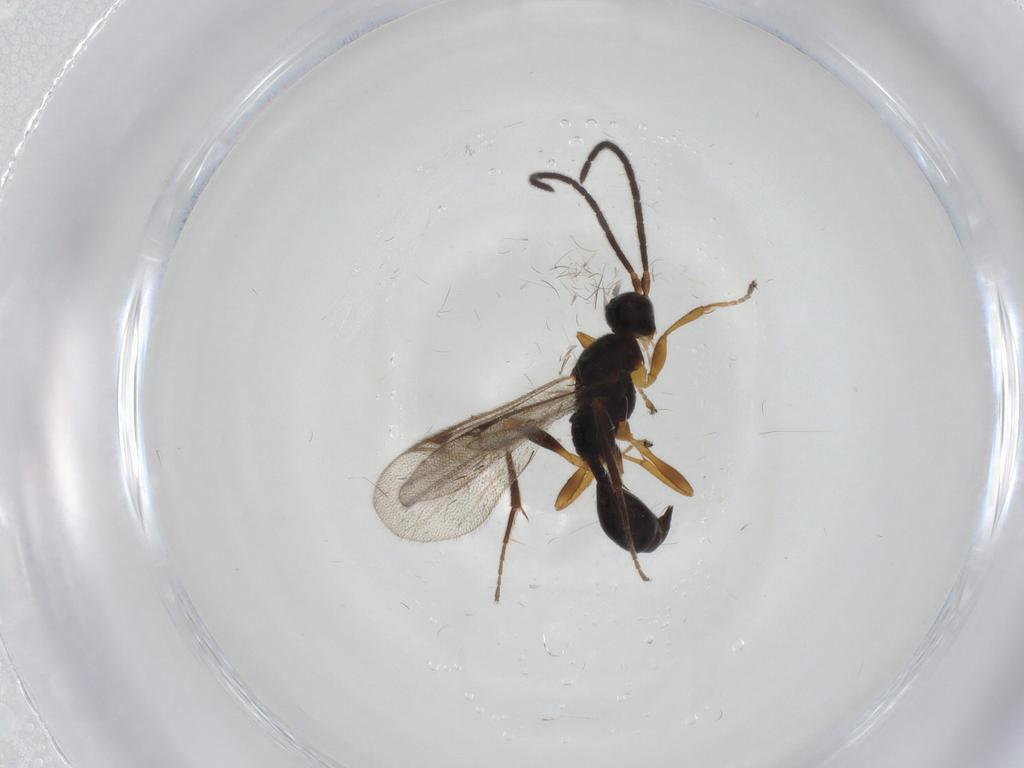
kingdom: Animalia
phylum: Arthropoda
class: Insecta
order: Hymenoptera
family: Proctotrupidae
